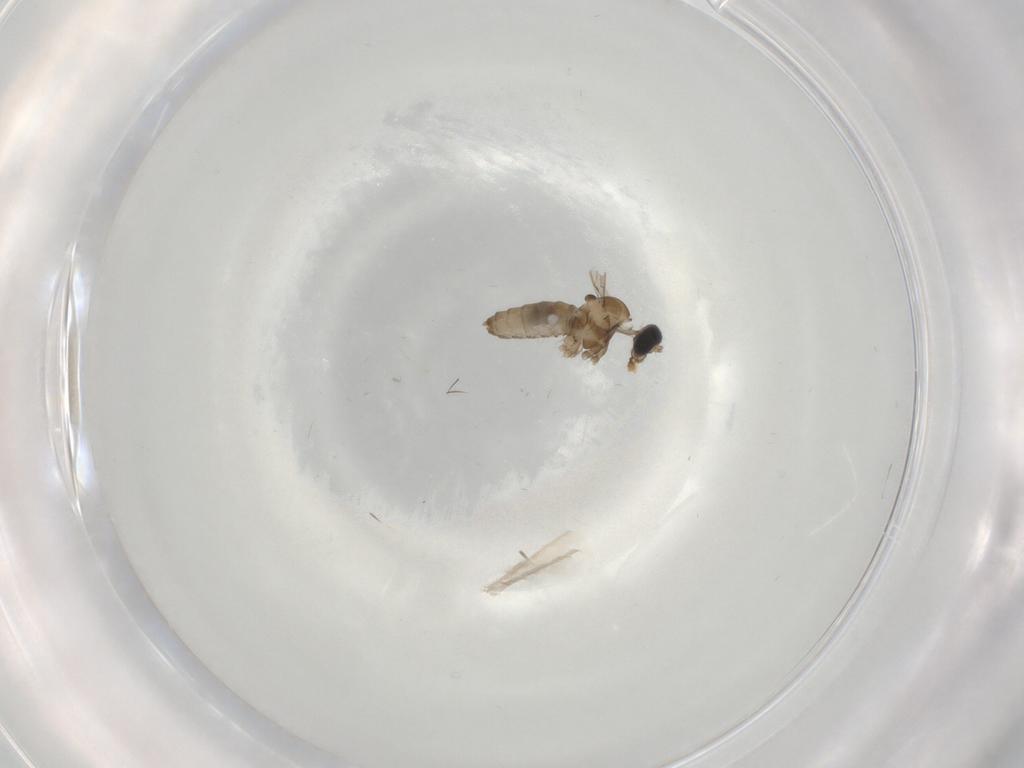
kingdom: Animalia
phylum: Arthropoda
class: Insecta
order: Diptera
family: Cecidomyiidae
